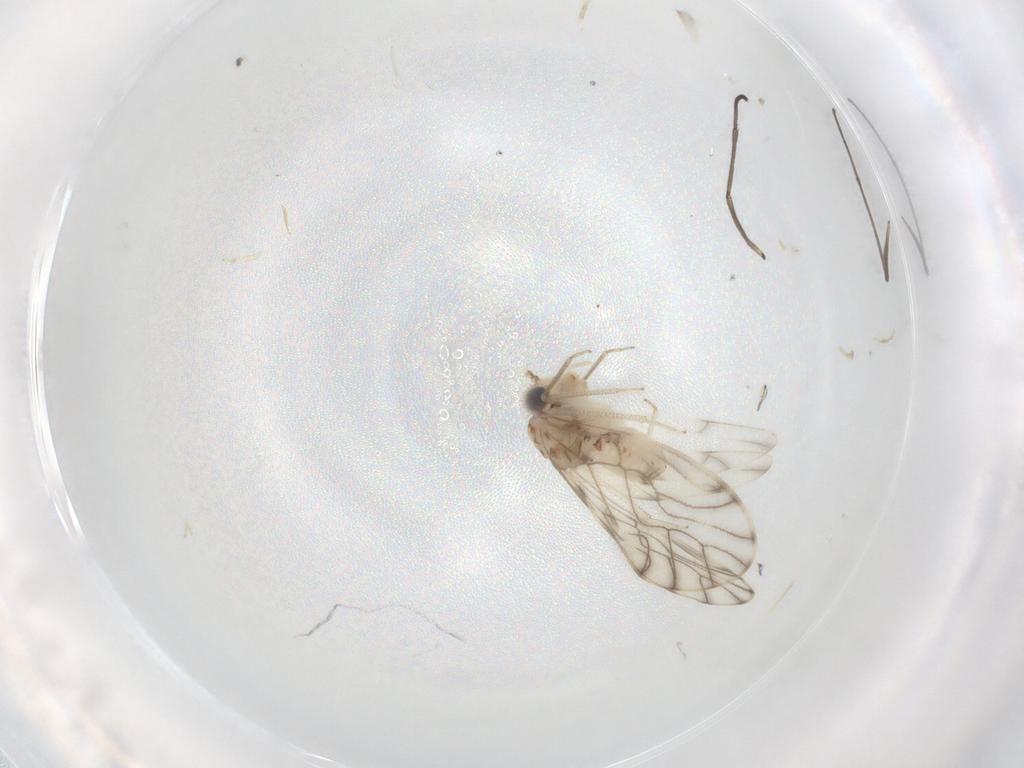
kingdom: Animalia
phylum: Arthropoda
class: Insecta
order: Psocodea
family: Philotarsidae
